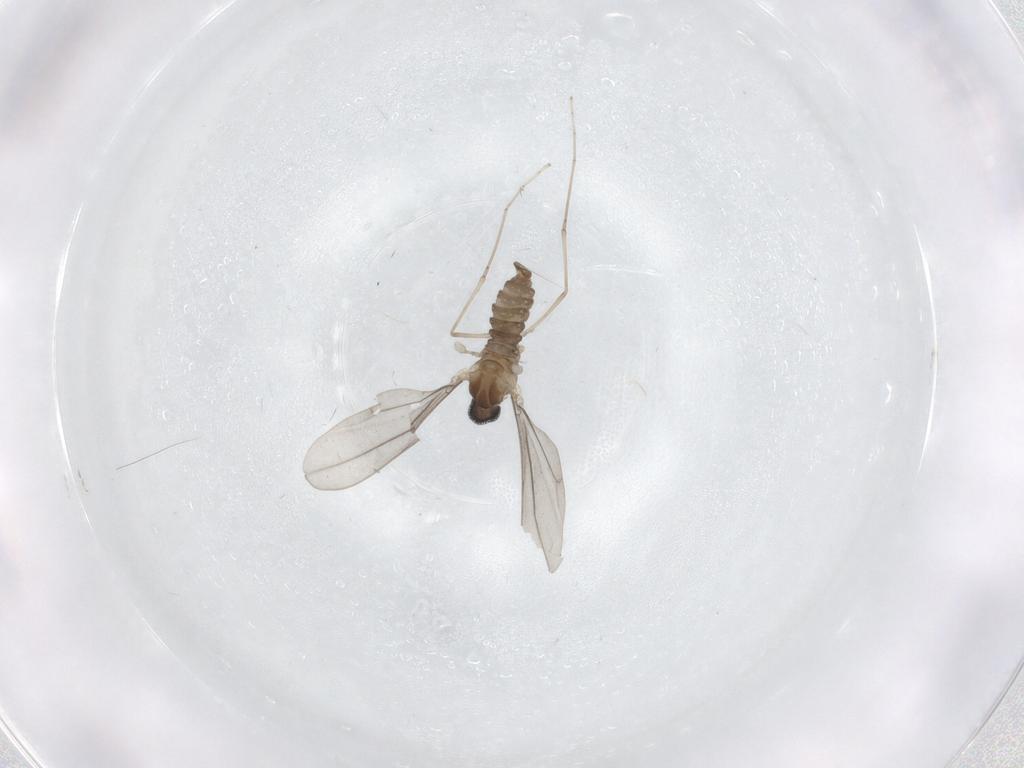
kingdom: Animalia
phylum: Arthropoda
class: Insecta
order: Diptera
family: Cecidomyiidae
